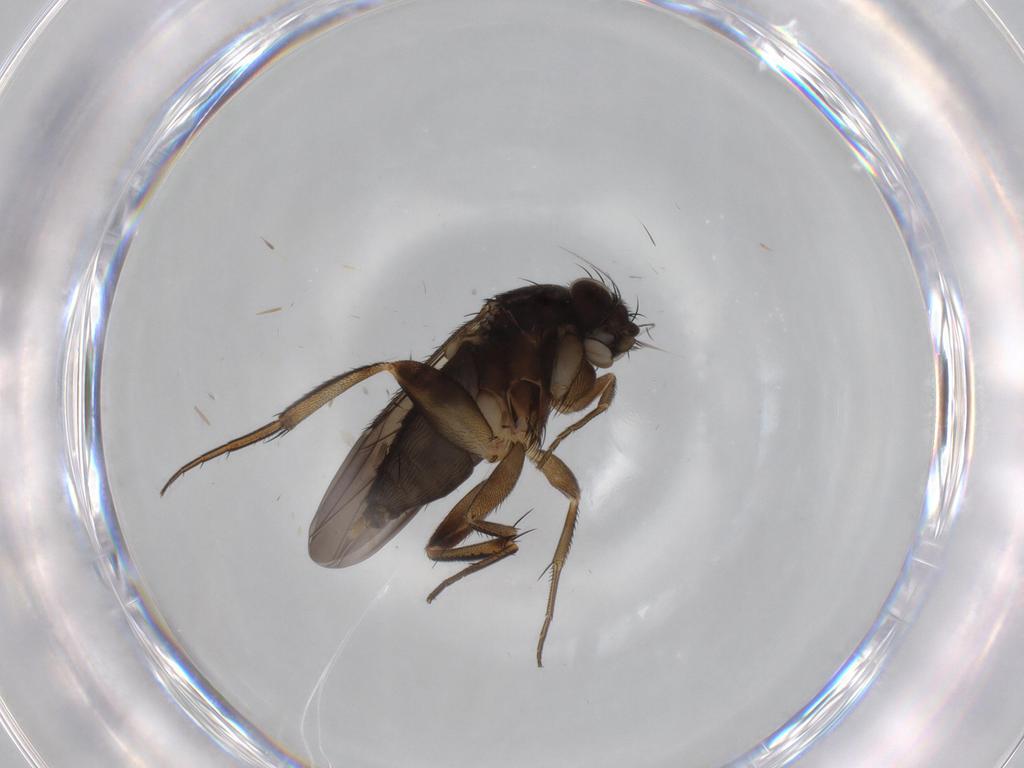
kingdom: Animalia
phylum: Arthropoda
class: Insecta
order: Diptera
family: Phoridae
